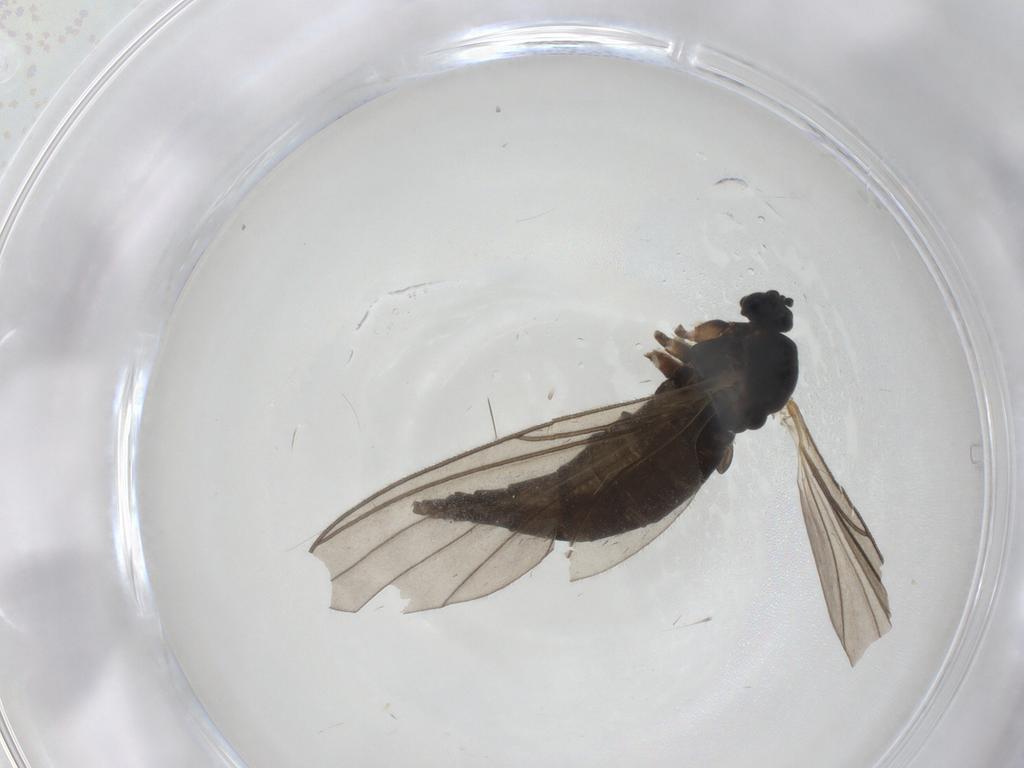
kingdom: Animalia
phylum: Arthropoda
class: Insecta
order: Diptera
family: Sciaridae
